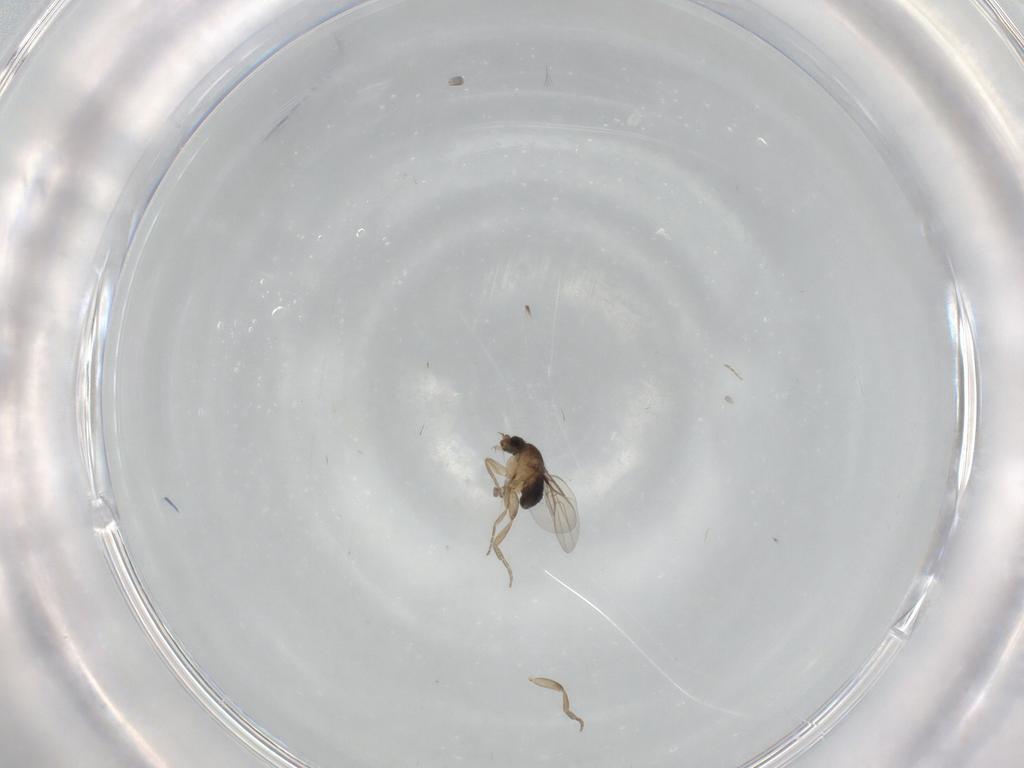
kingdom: Animalia
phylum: Arthropoda
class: Insecta
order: Diptera
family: Phoridae
